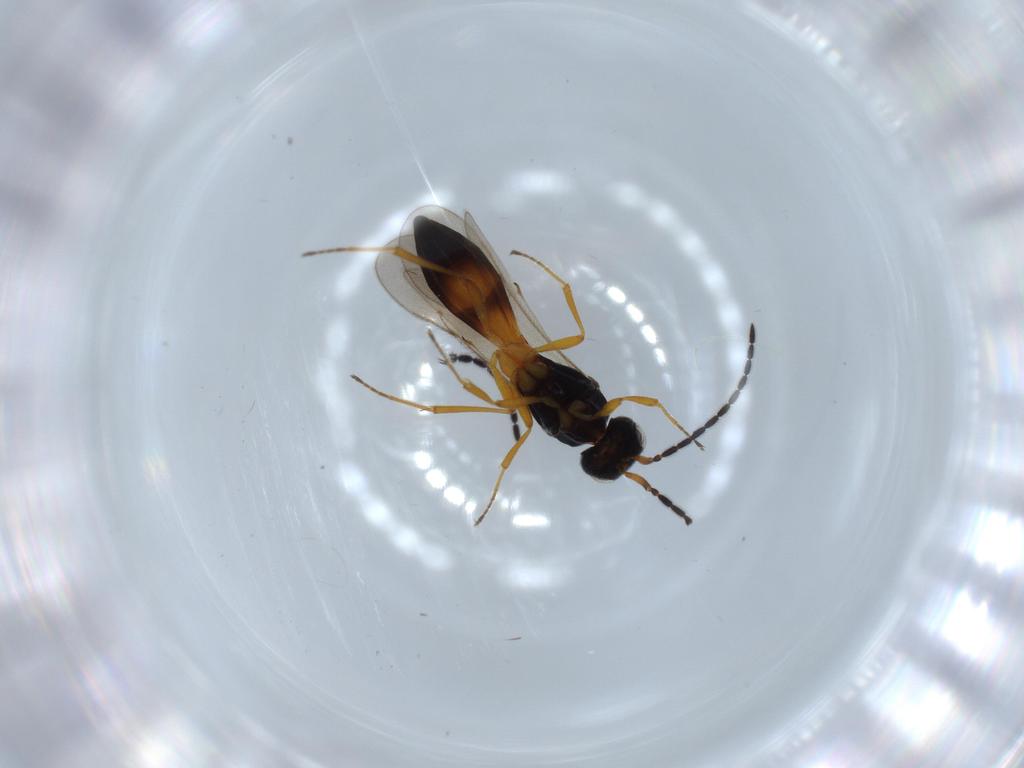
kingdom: Animalia
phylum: Arthropoda
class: Insecta
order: Hymenoptera
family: Scelionidae
